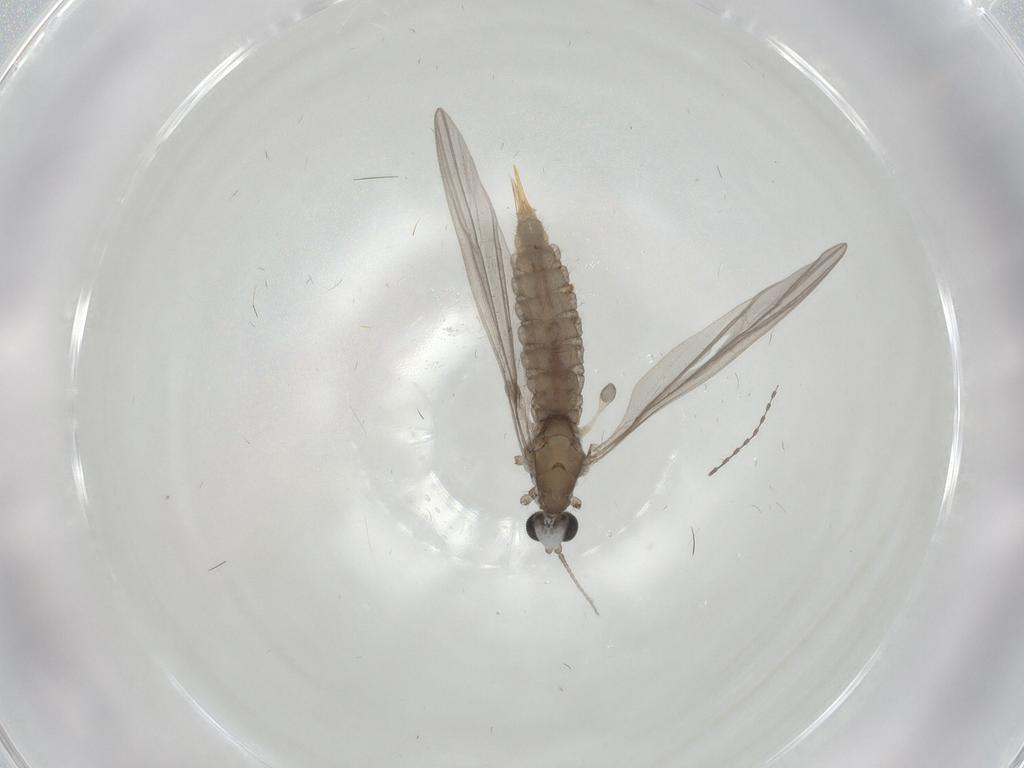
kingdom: Animalia
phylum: Arthropoda
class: Insecta
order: Diptera
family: Limoniidae
